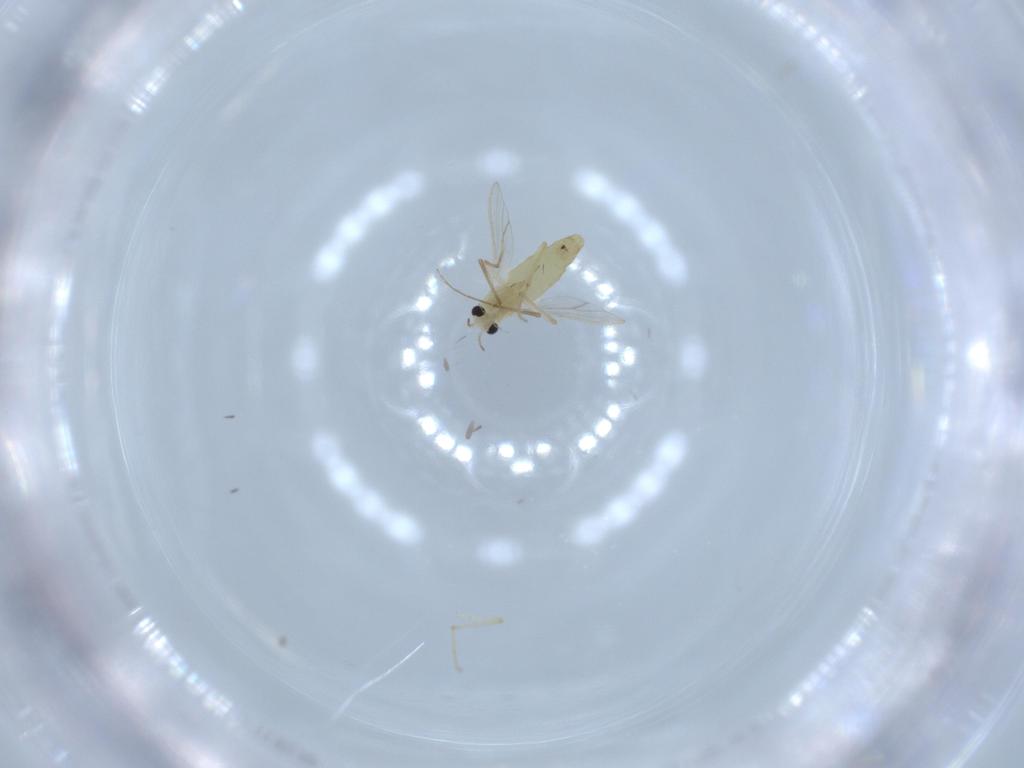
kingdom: Animalia
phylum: Arthropoda
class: Insecta
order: Diptera
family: Chironomidae
